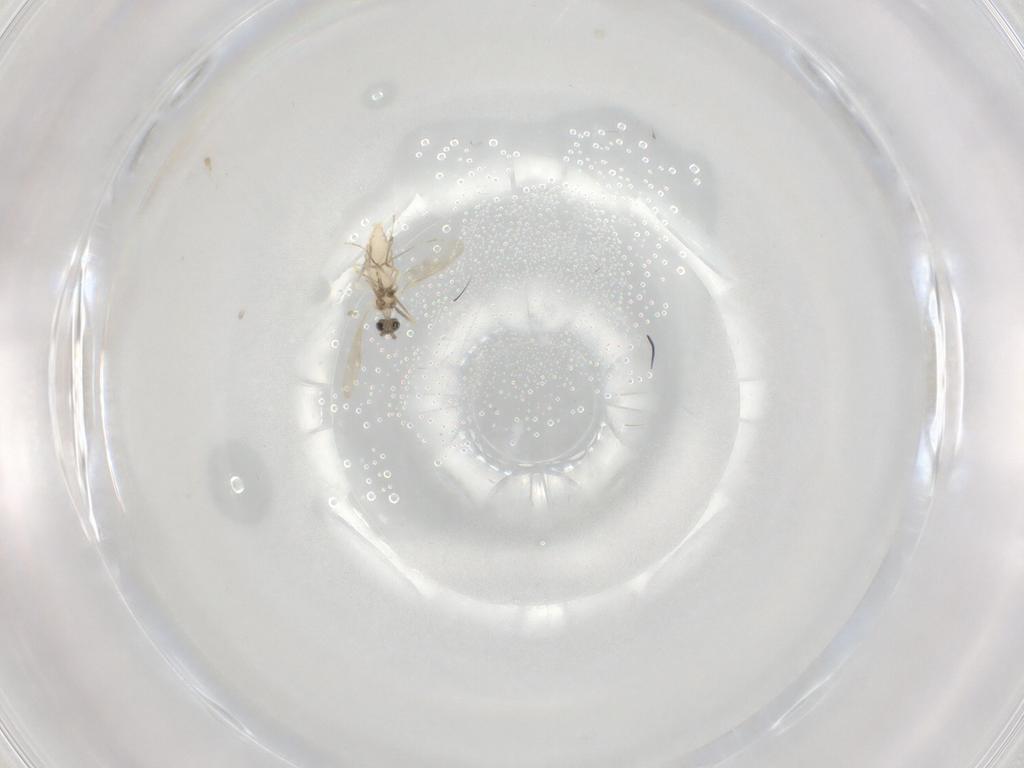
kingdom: Animalia
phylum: Arthropoda
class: Insecta
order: Diptera
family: Cecidomyiidae
